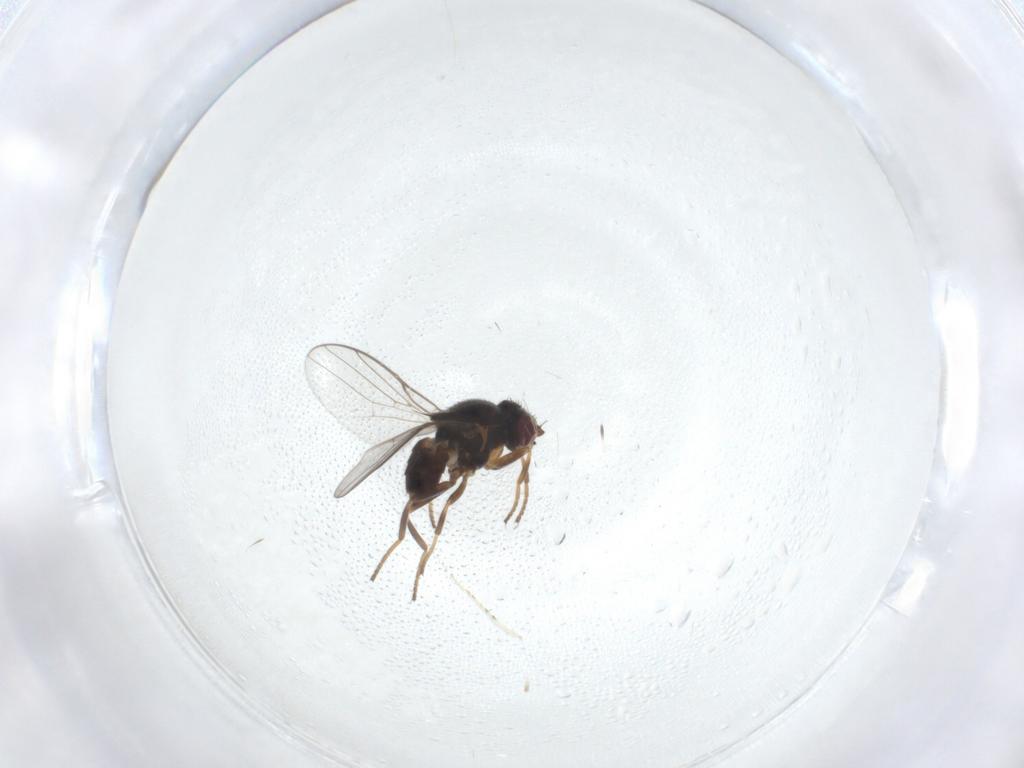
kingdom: Animalia
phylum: Arthropoda
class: Insecta
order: Diptera
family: Chloropidae
